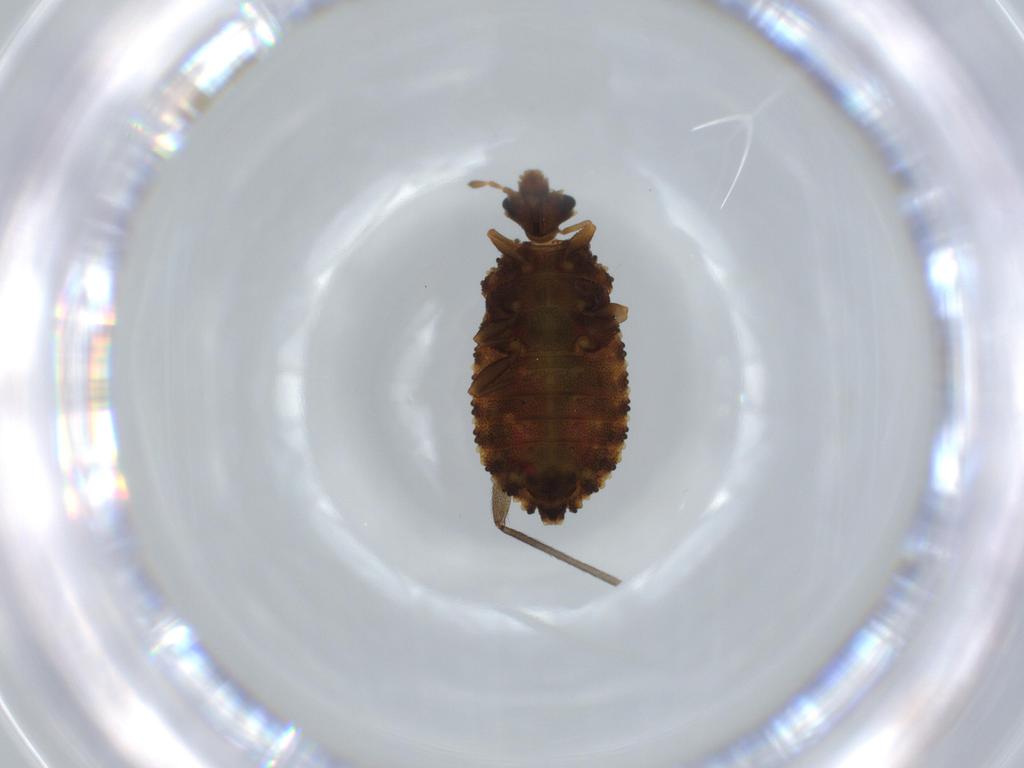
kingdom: Animalia
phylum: Arthropoda
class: Insecta
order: Hemiptera
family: Aradidae
